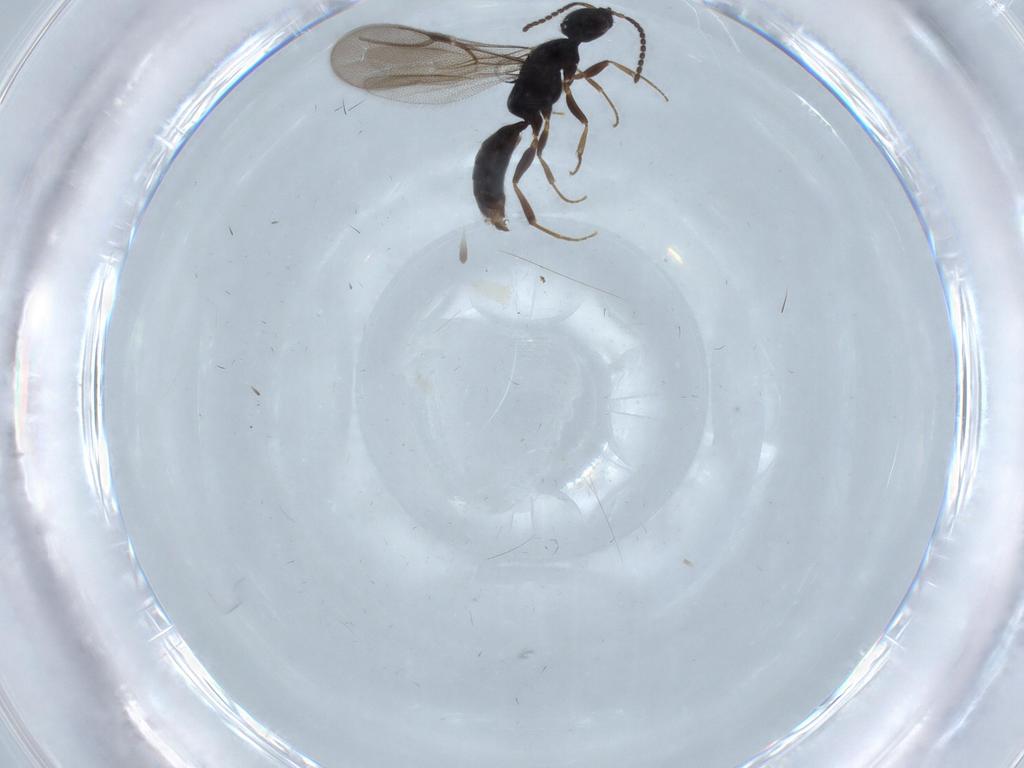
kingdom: Animalia
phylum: Arthropoda
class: Insecta
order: Hymenoptera
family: Bethylidae
